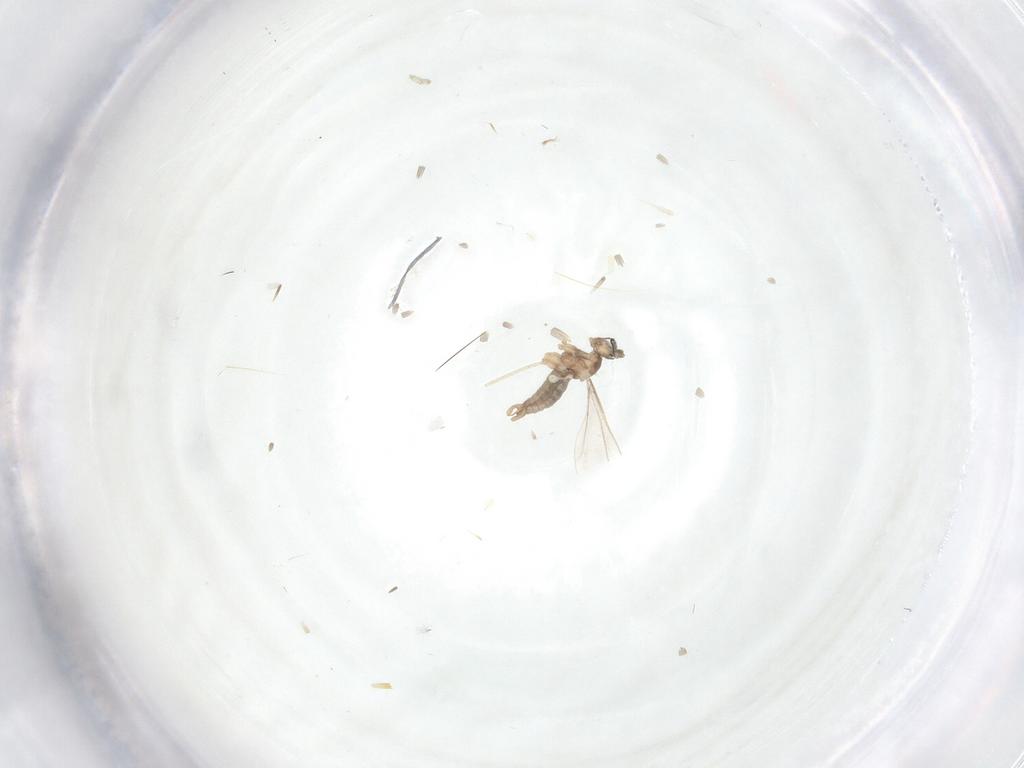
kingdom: Animalia
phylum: Arthropoda
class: Insecta
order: Diptera
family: Cecidomyiidae
